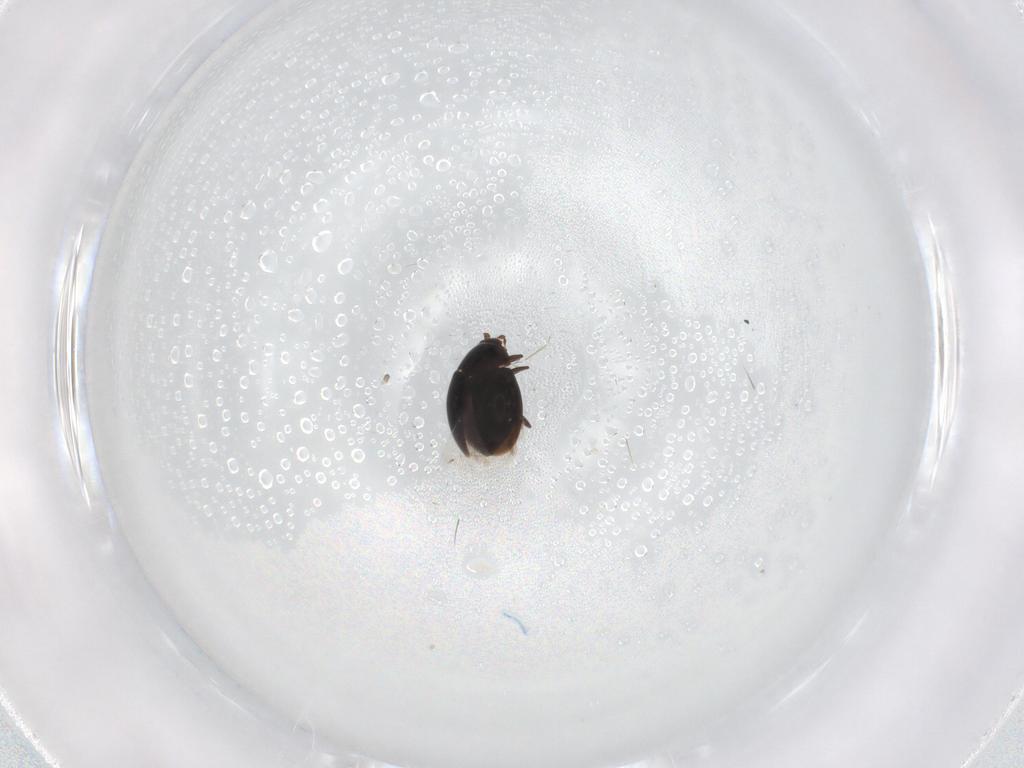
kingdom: Animalia
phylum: Arthropoda
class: Insecta
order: Coleoptera
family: Corylophidae
